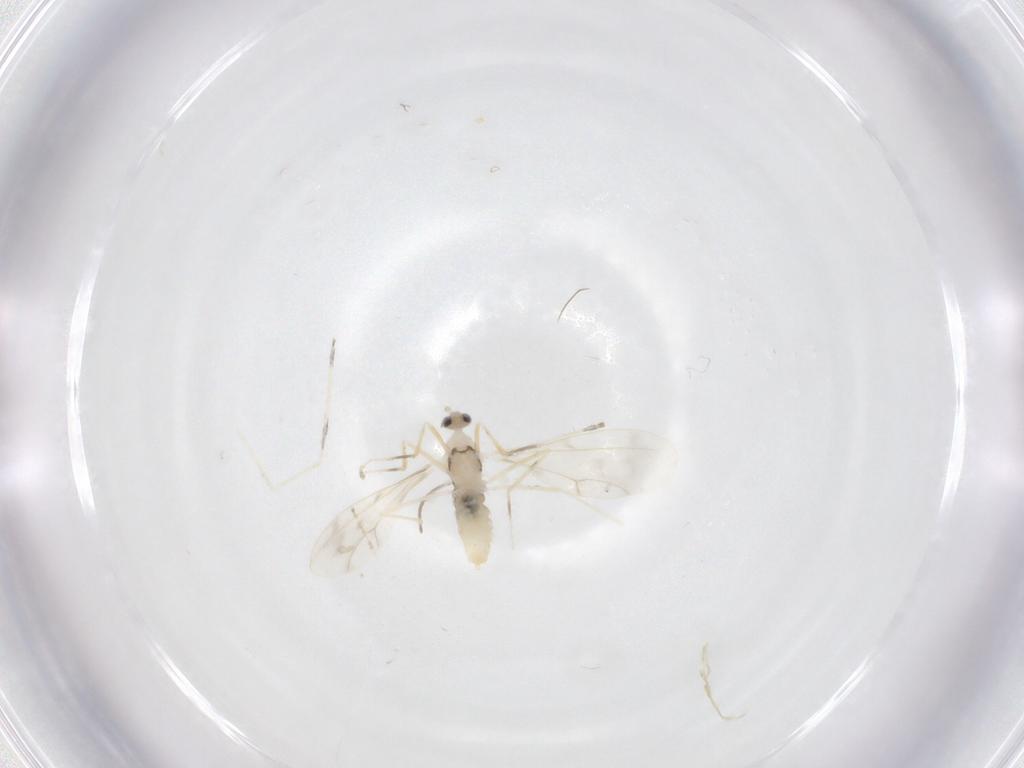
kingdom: Animalia
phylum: Arthropoda
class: Insecta
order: Diptera
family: Cecidomyiidae
